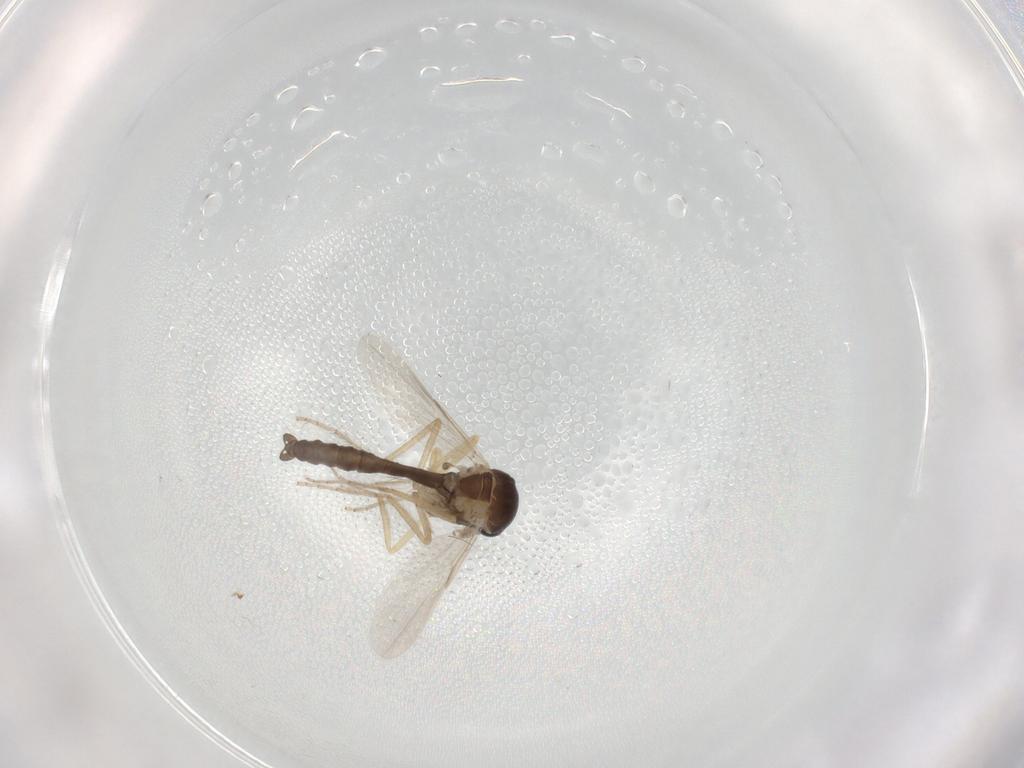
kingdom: Animalia
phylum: Arthropoda
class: Insecta
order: Diptera
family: Ceratopogonidae
